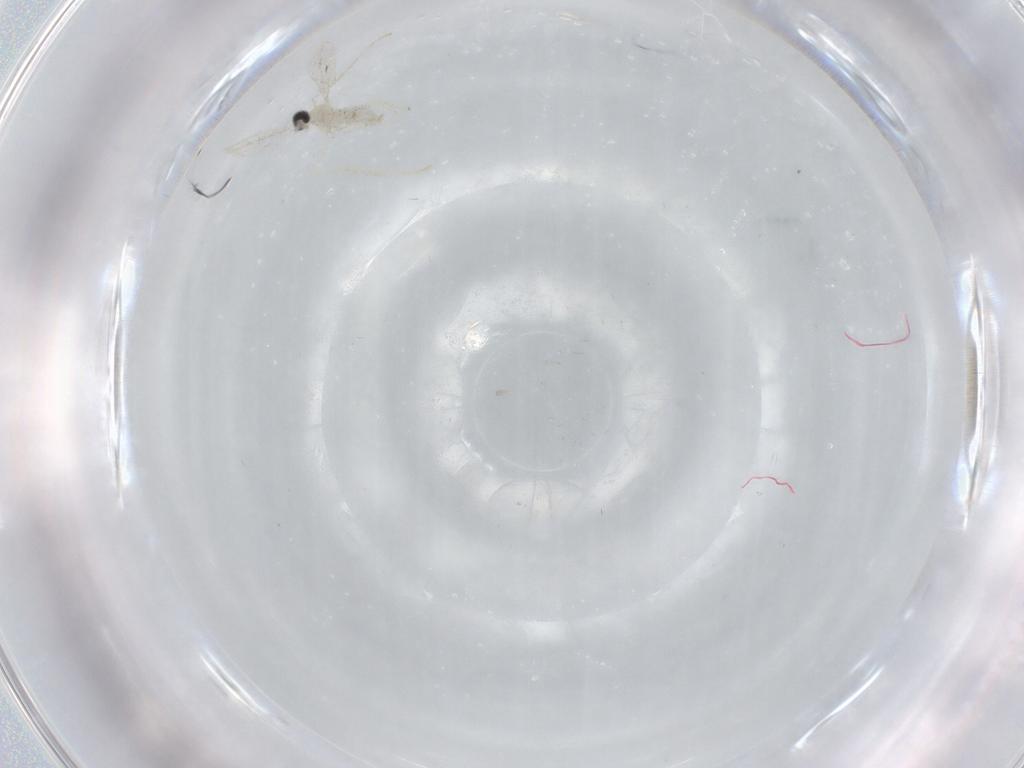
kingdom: Animalia
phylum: Arthropoda
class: Insecta
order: Diptera
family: Cecidomyiidae
